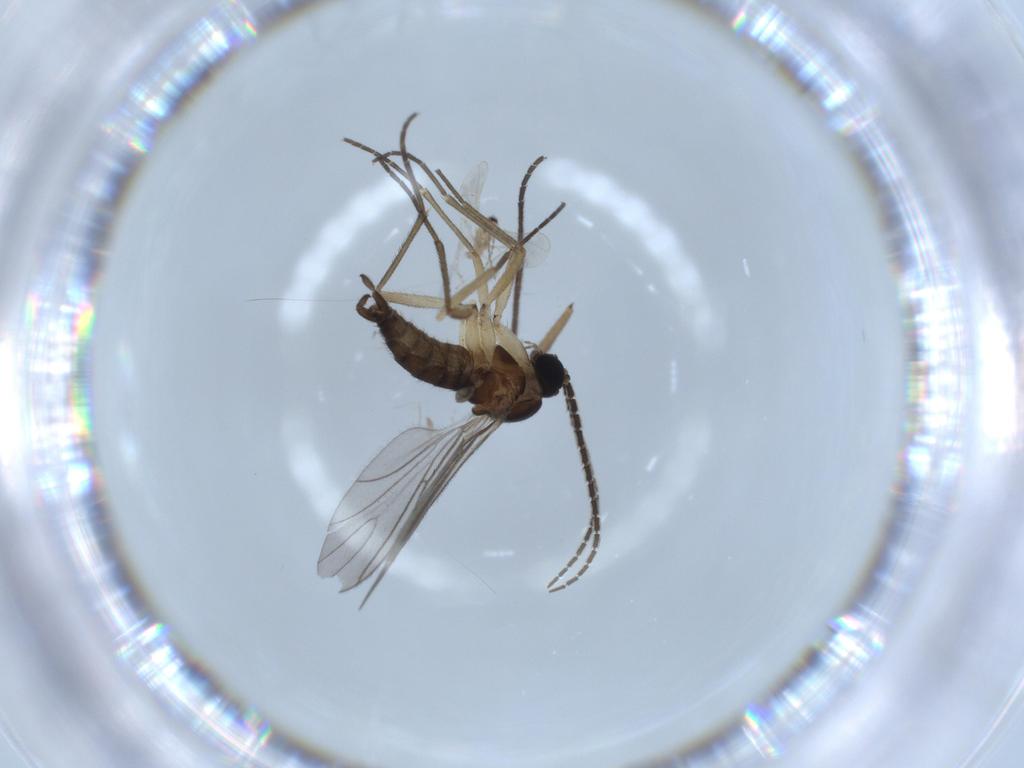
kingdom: Animalia
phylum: Arthropoda
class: Insecta
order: Diptera
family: Sciaridae
